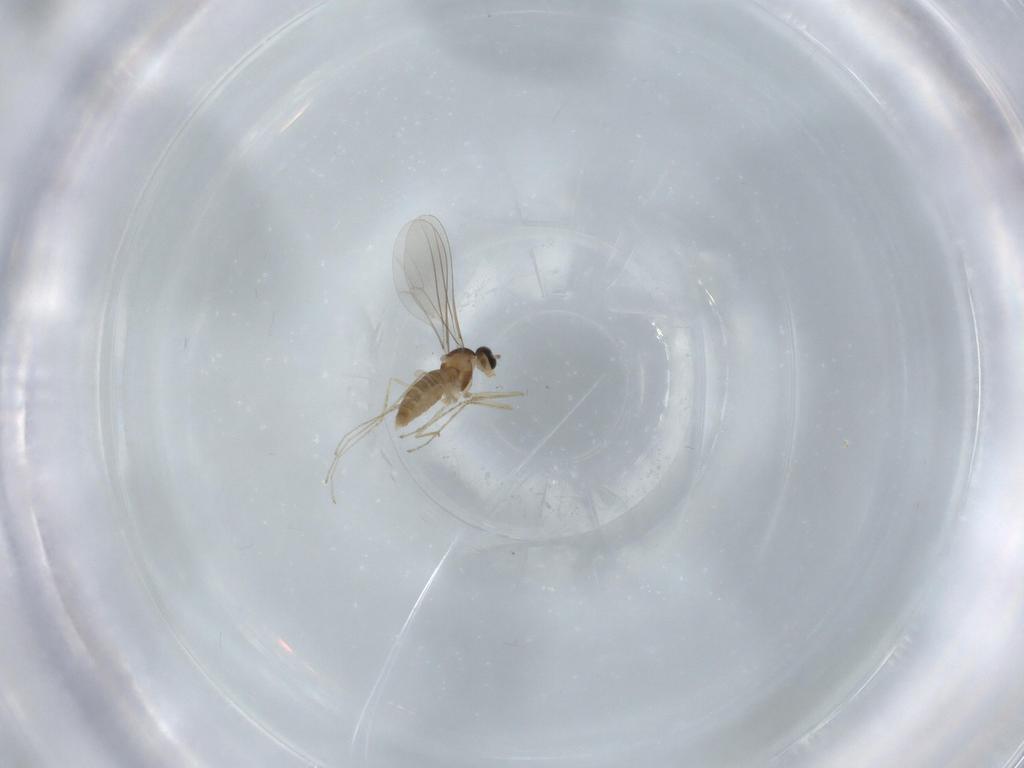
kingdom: Animalia
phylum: Arthropoda
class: Insecta
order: Diptera
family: Cecidomyiidae
